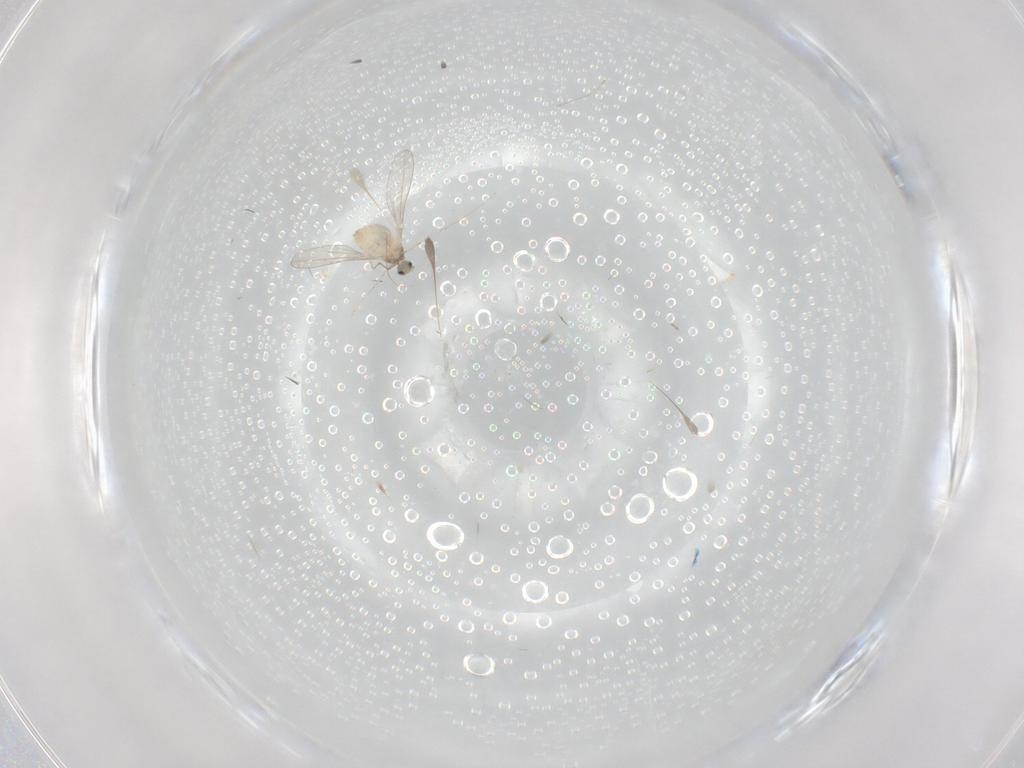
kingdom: Animalia
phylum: Arthropoda
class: Insecta
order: Diptera
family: Cecidomyiidae
